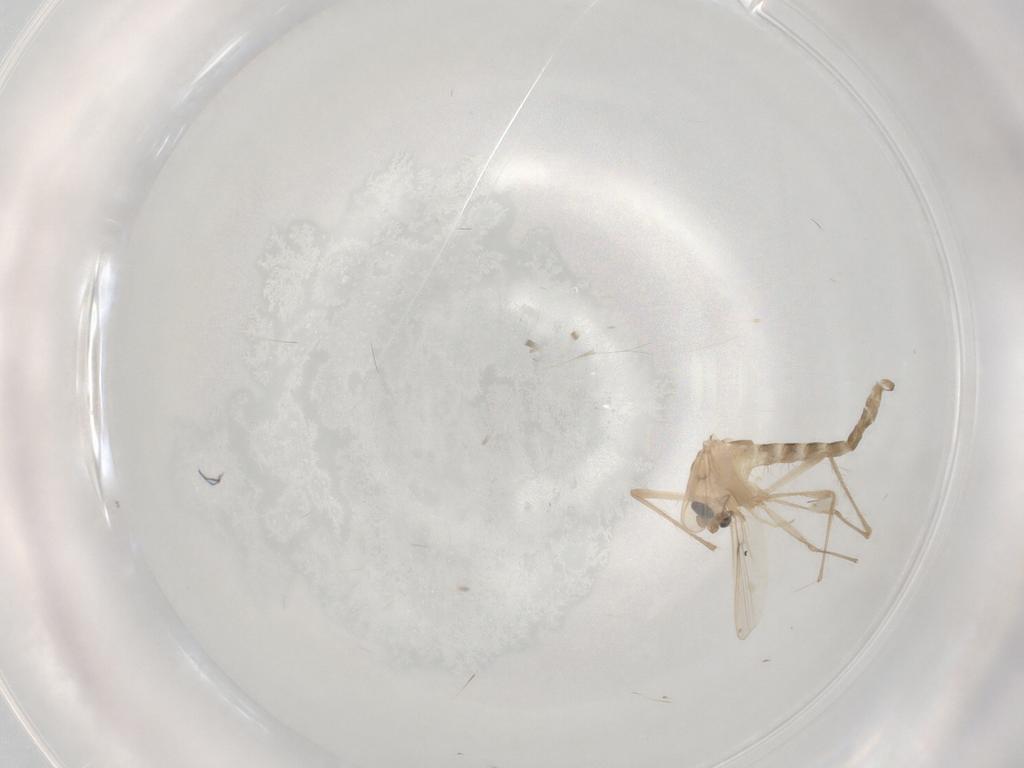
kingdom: Animalia
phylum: Arthropoda
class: Insecta
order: Diptera
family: Chironomidae
